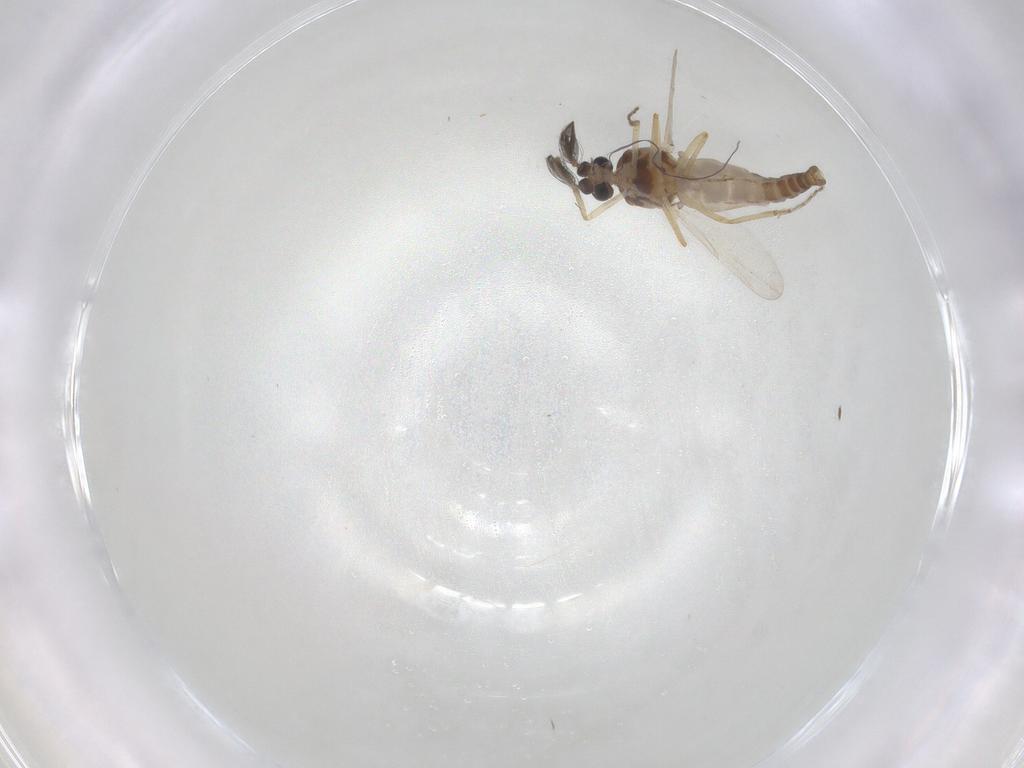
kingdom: Animalia
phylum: Arthropoda
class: Insecta
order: Diptera
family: Ceratopogonidae
